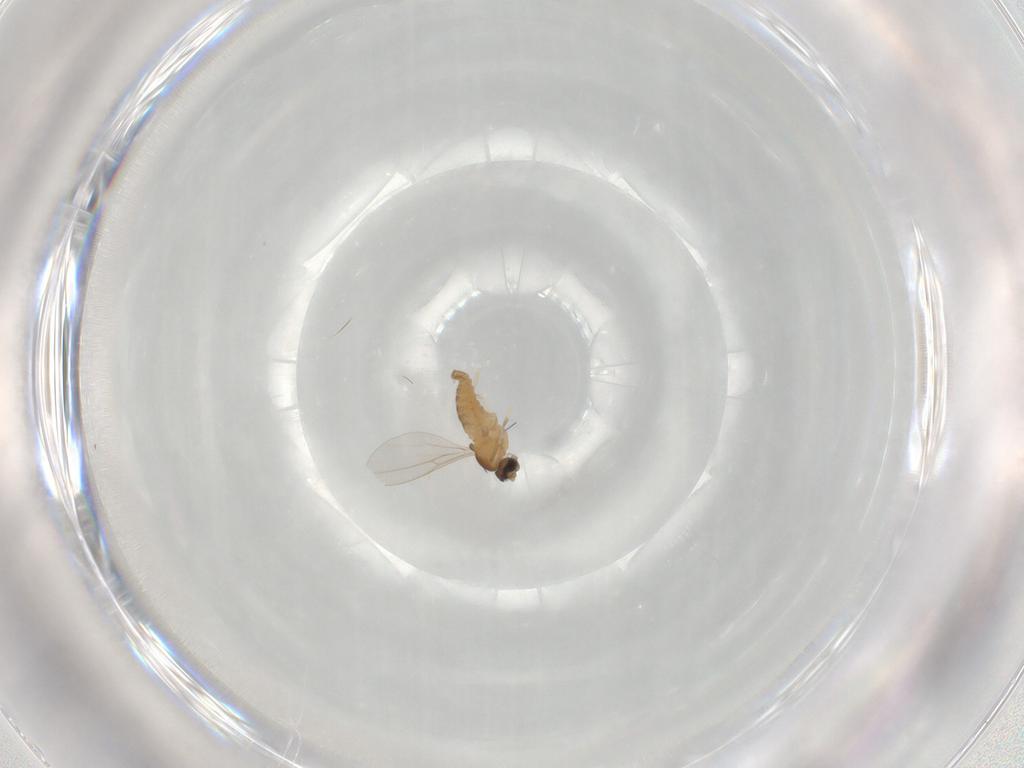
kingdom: Animalia
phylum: Arthropoda
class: Insecta
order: Diptera
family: Cecidomyiidae
